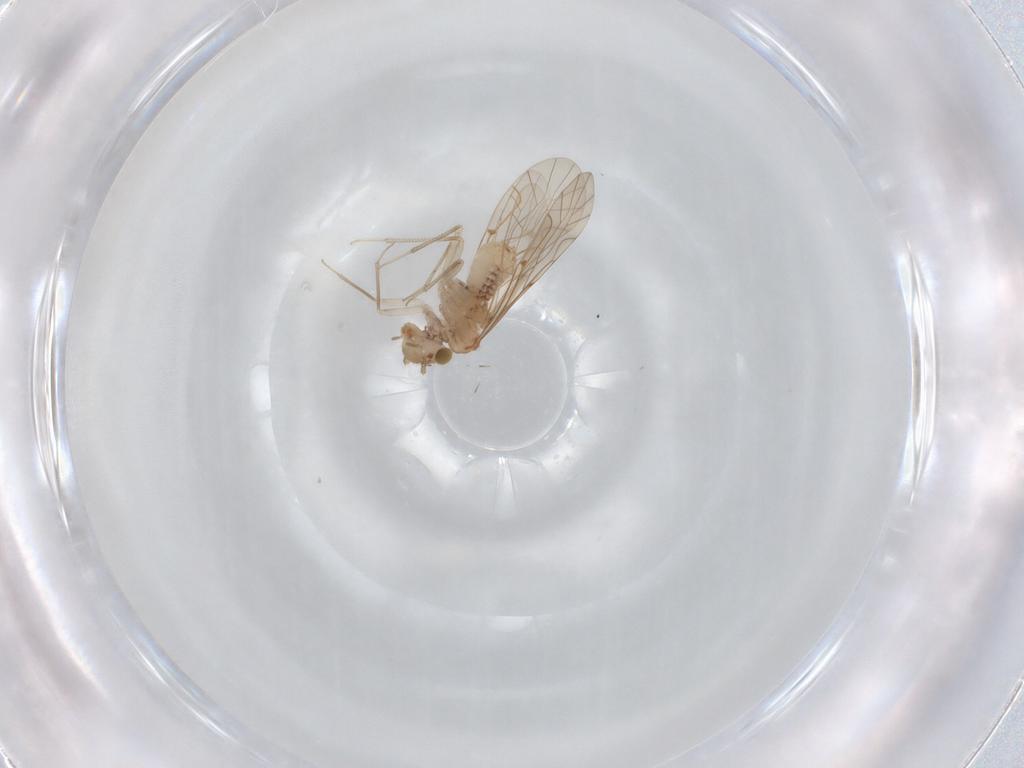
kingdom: Animalia
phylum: Arthropoda
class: Insecta
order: Psocodea
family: Lachesillidae
